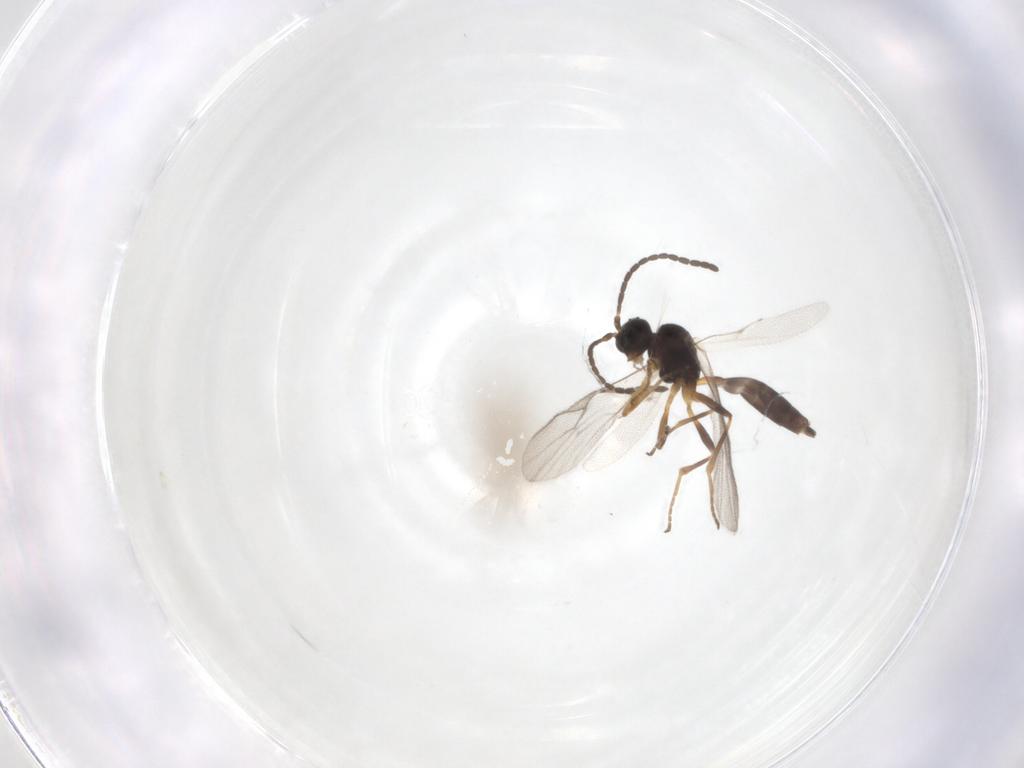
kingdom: Animalia
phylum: Arthropoda
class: Insecta
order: Hymenoptera
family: Braconidae
